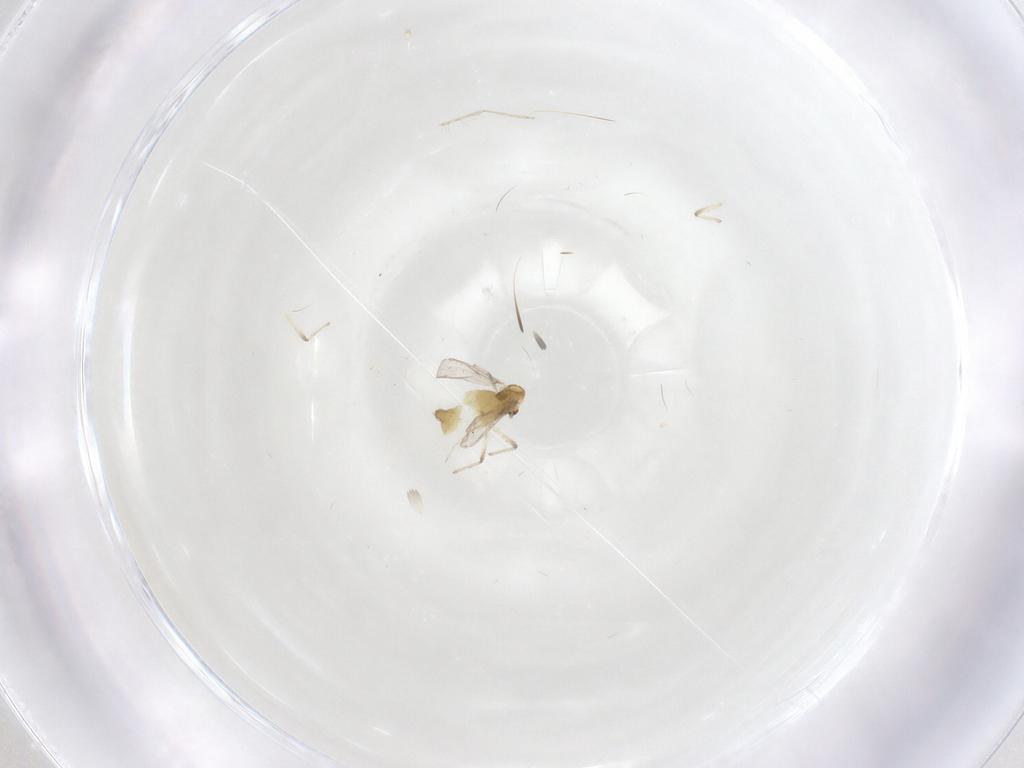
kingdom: Animalia
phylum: Arthropoda
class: Insecta
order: Diptera
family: Chironomidae
